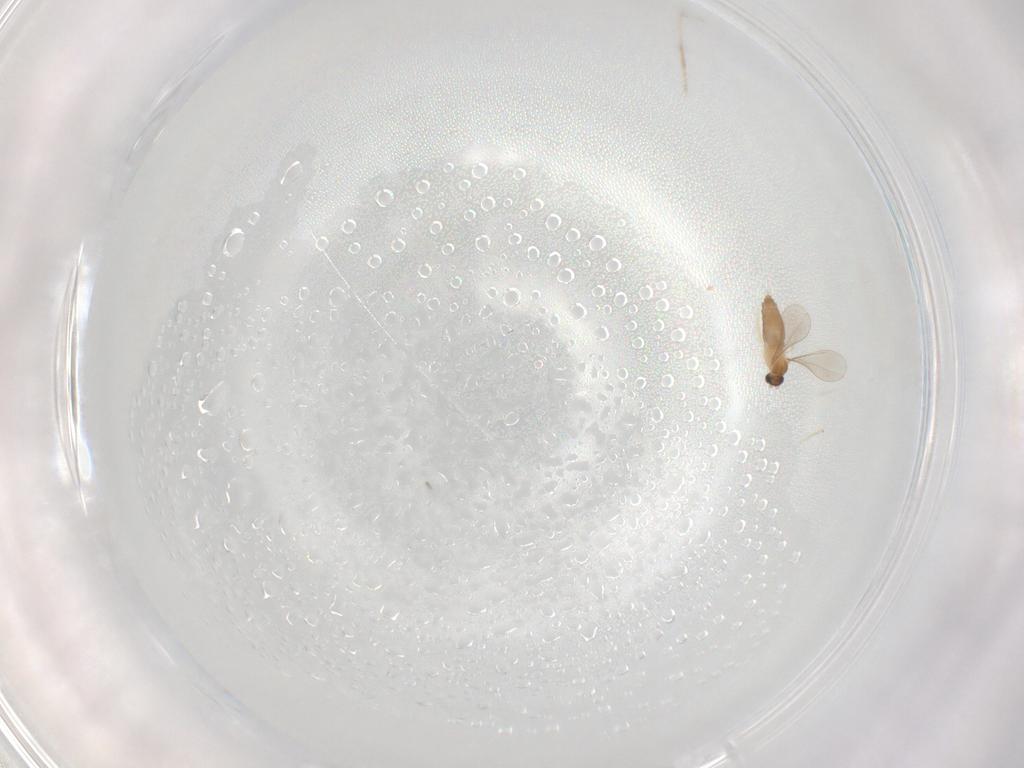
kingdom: Animalia
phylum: Arthropoda
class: Insecta
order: Diptera
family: Cecidomyiidae
